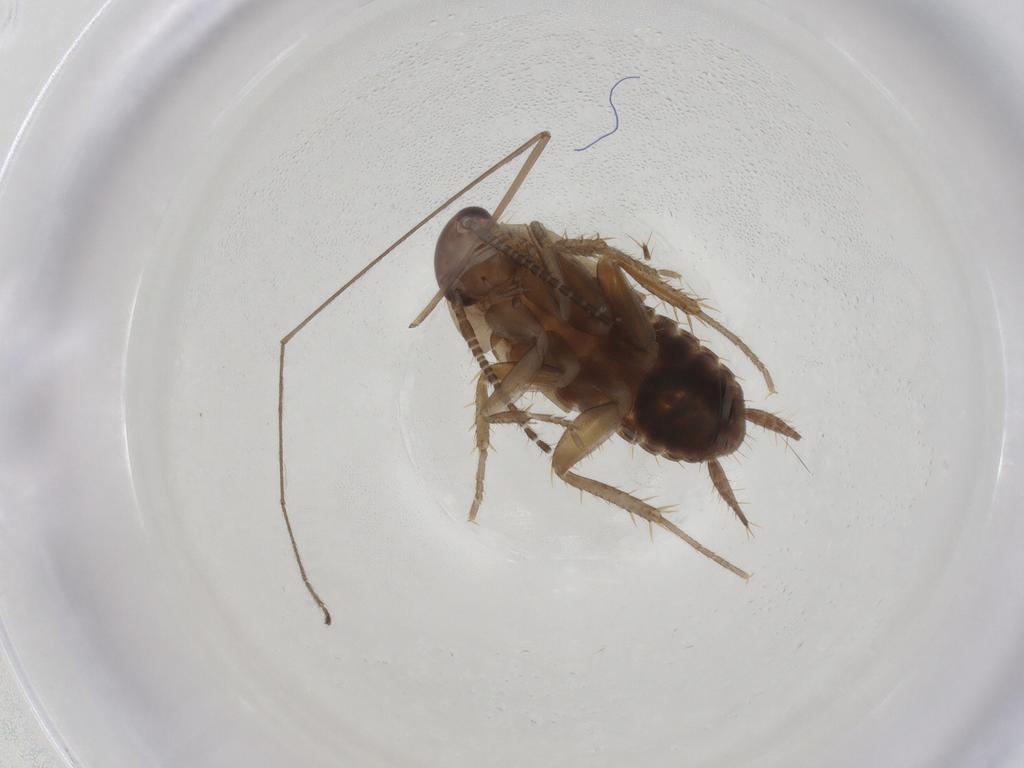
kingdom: Animalia
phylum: Arthropoda
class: Insecta
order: Blattodea
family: Ectobiidae
